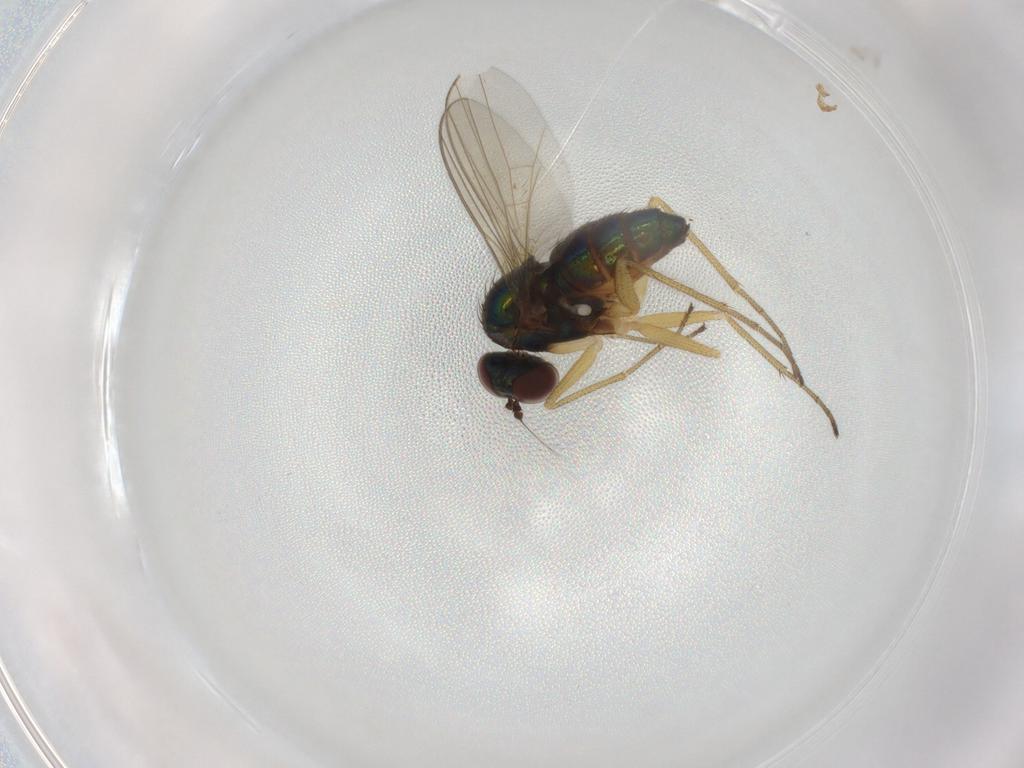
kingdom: Animalia
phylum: Arthropoda
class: Insecta
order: Diptera
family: Dolichopodidae
